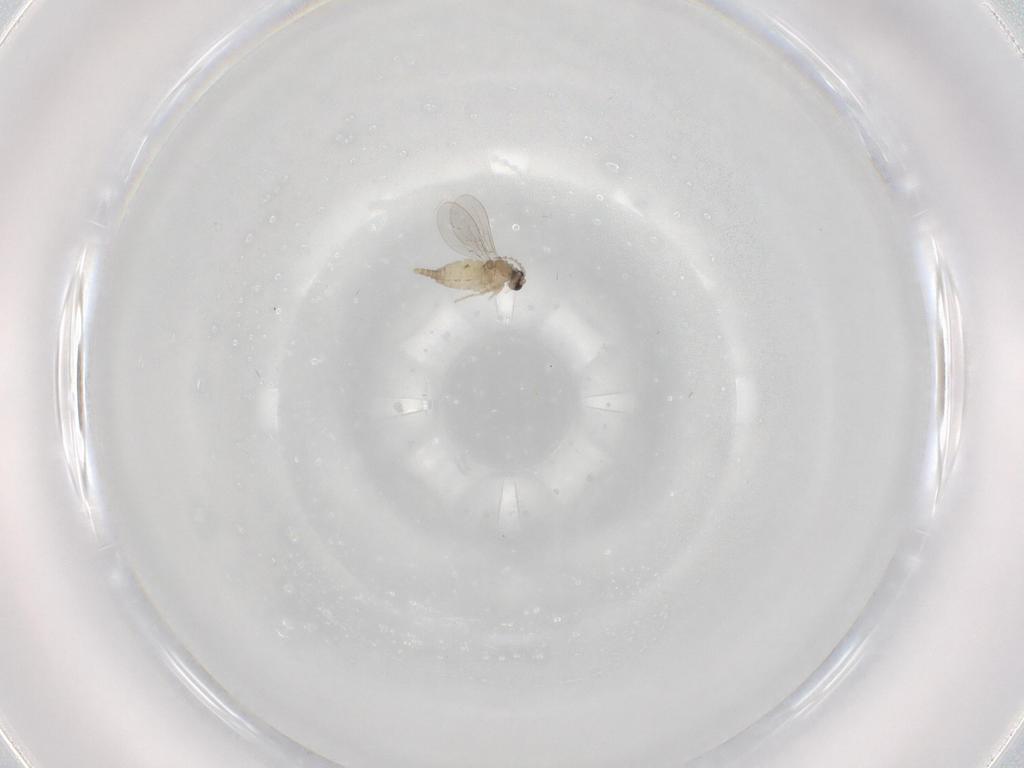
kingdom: Animalia
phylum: Arthropoda
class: Insecta
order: Diptera
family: Cecidomyiidae
